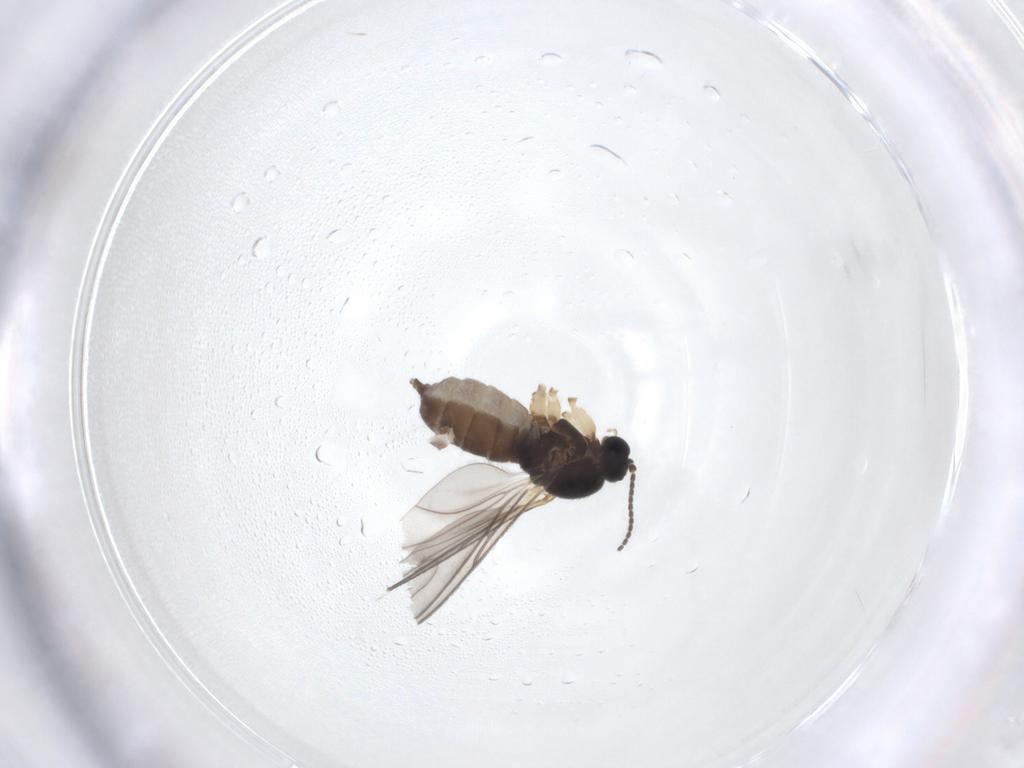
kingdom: Animalia
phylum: Arthropoda
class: Insecta
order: Diptera
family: Sciaridae
